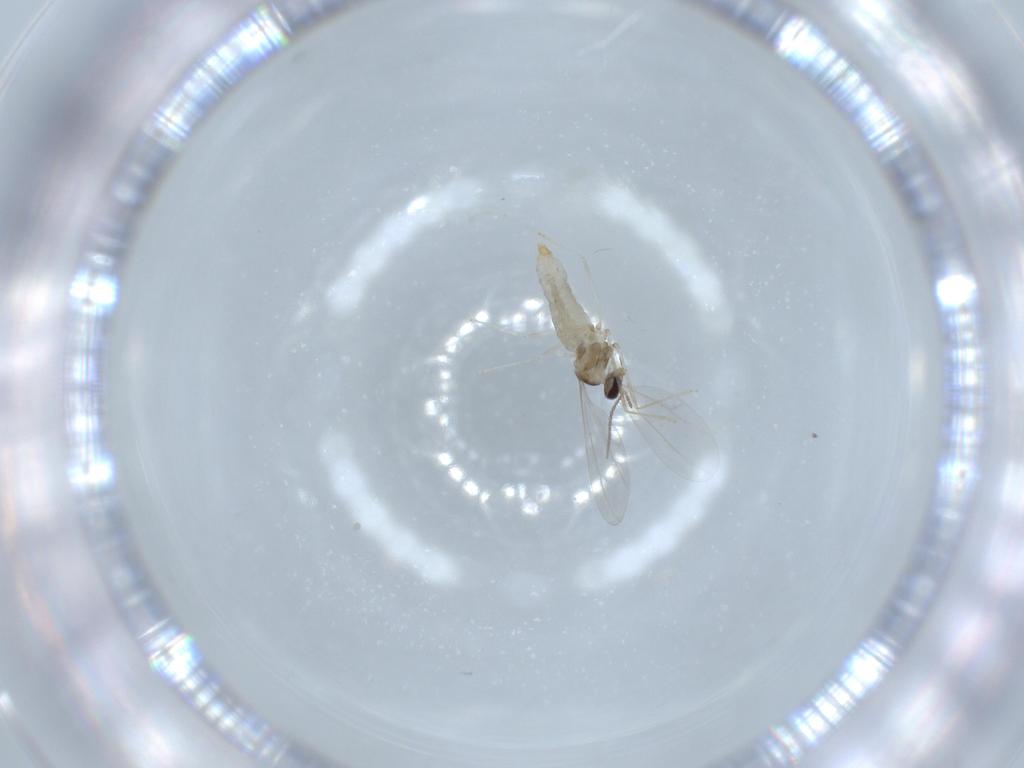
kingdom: Animalia
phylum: Arthropoda
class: Insecta
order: Diptera
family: Cecidomyiidae
